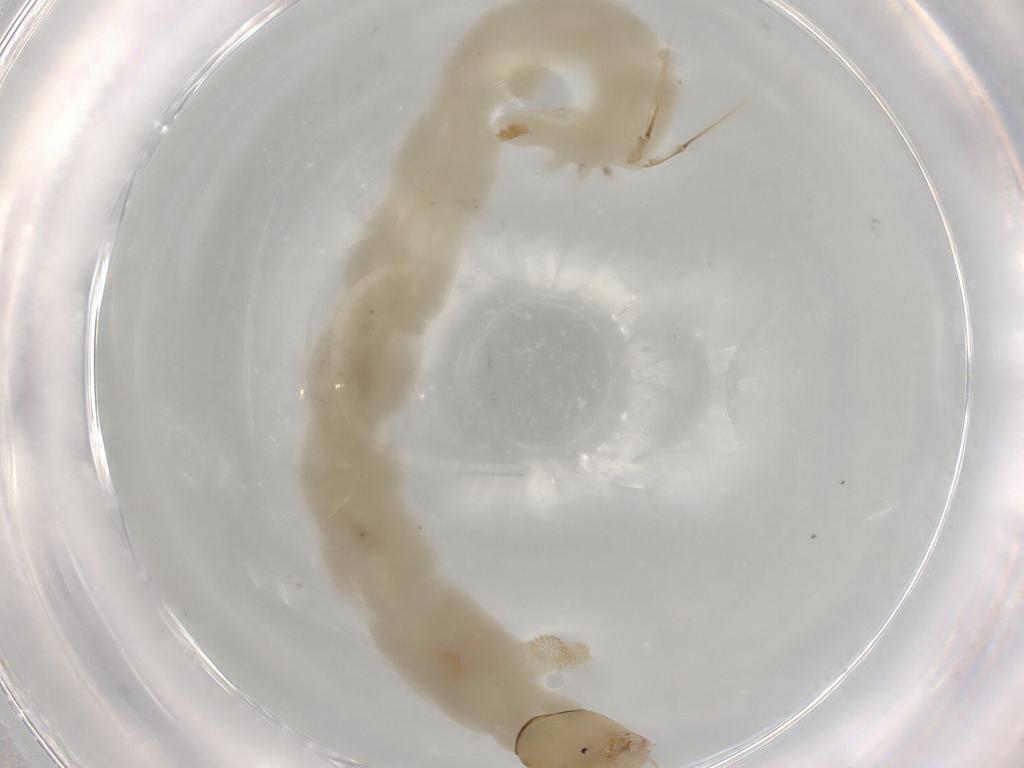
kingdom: Animalia
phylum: Arthropoda
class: Insecta
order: Diptera
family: Chironomidae
